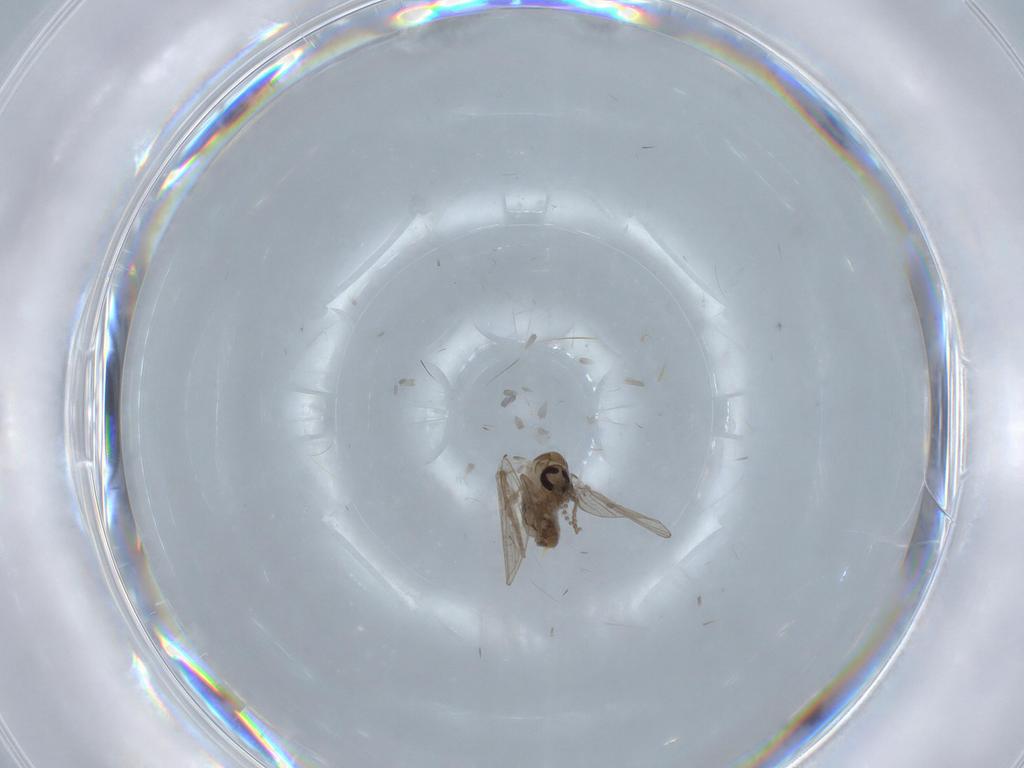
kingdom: Animalia
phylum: Arthropoda
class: Insecta
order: Diptera
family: Psychodidae
